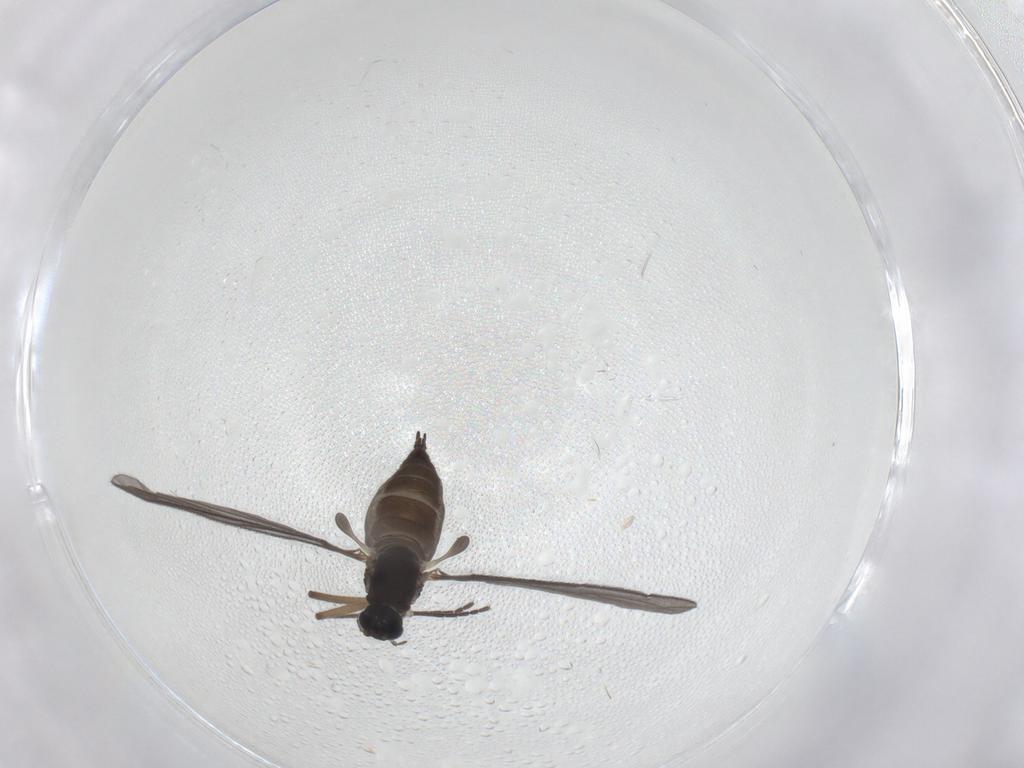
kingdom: Animalia
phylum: Arthropoda
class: Insecta
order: Diptera
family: Sciaridae
